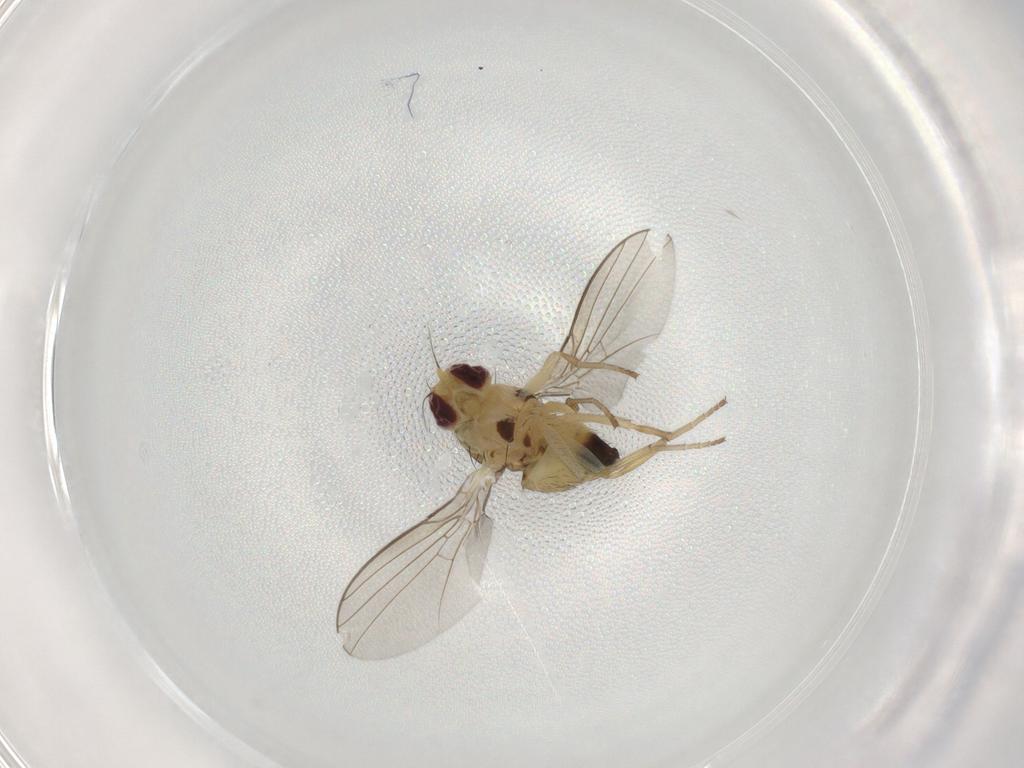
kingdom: Animalia
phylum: Arthropoda
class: Insecta
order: Diptera
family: Agromyzidae
